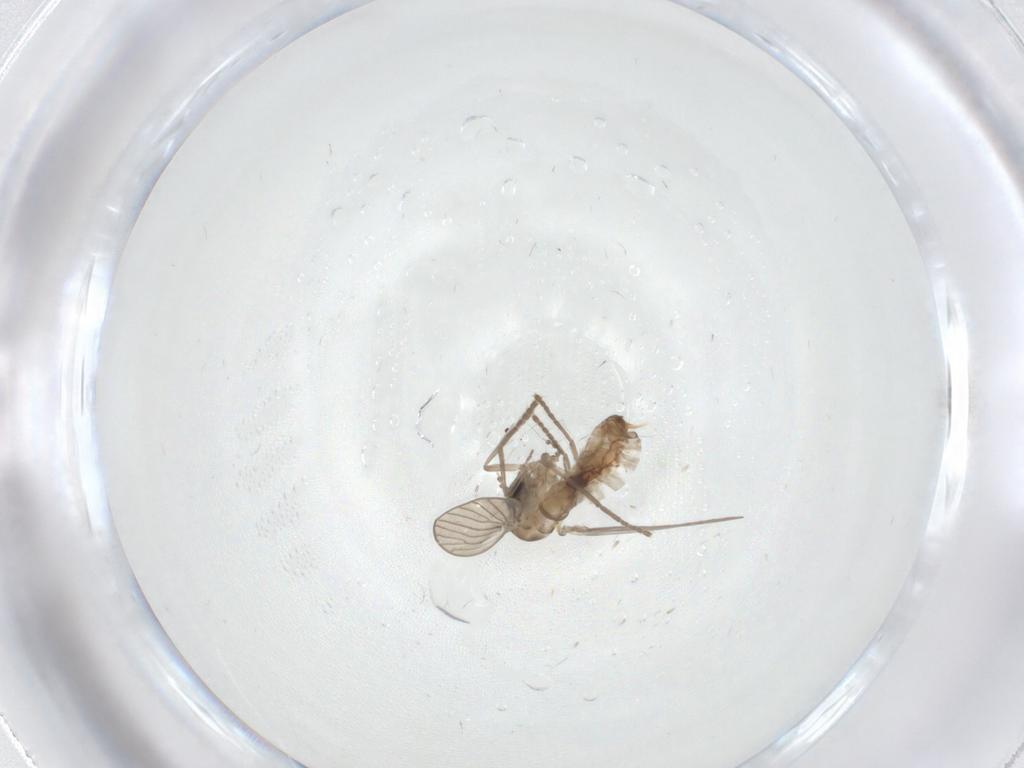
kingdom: Animalia
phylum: Arthropoda
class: Insecta
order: Diptera
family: Psychodidae
